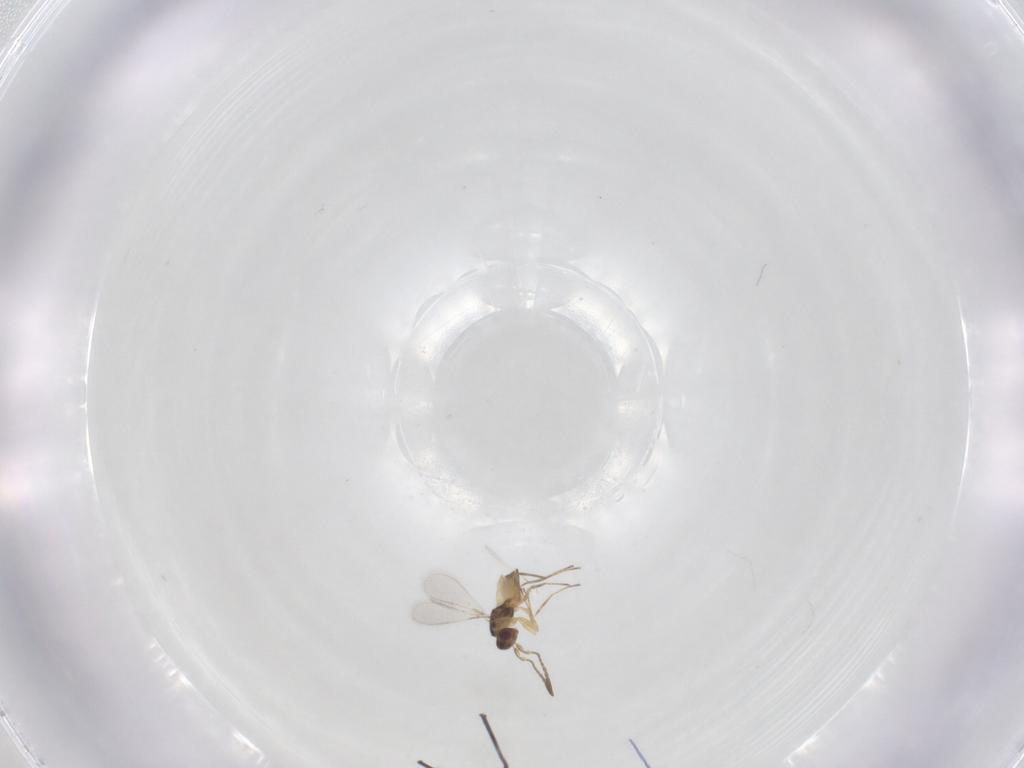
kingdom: Animalia
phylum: Arthropoda
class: Insecta
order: Hymenoptera
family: Mymaridae
